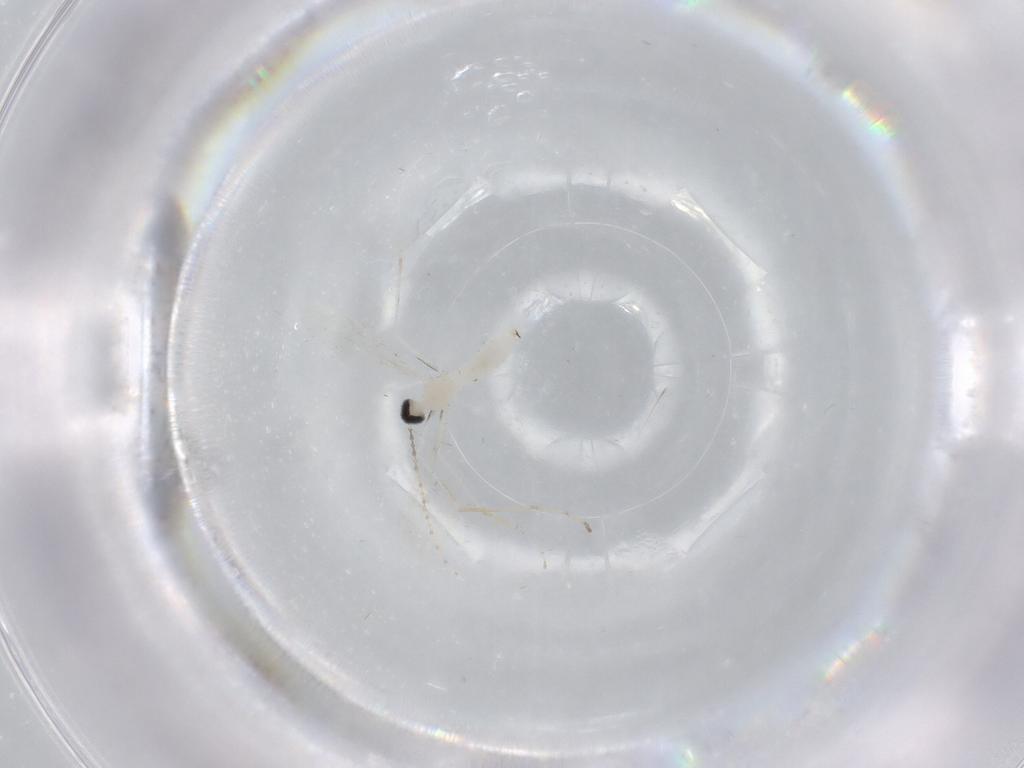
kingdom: Animalia
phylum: Arthropoda
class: Insecta
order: Diptera
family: Cecidomyiidae
